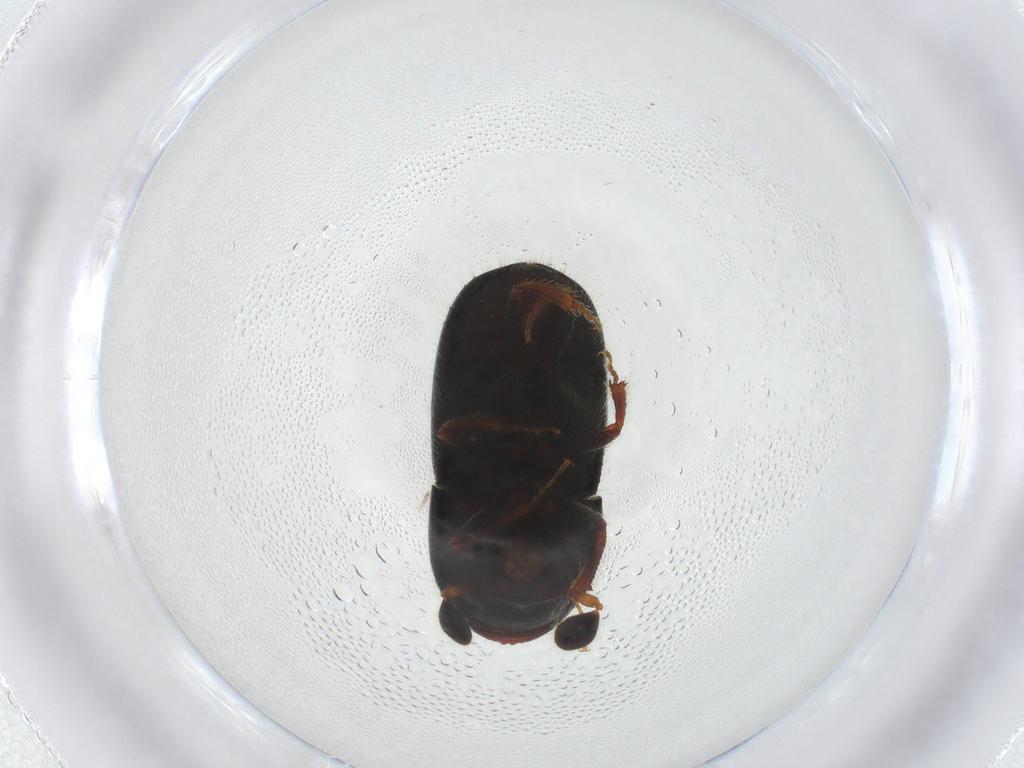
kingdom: Animalia
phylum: Arthropoda
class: Insecta
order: Coleoptera
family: Curculionidae
